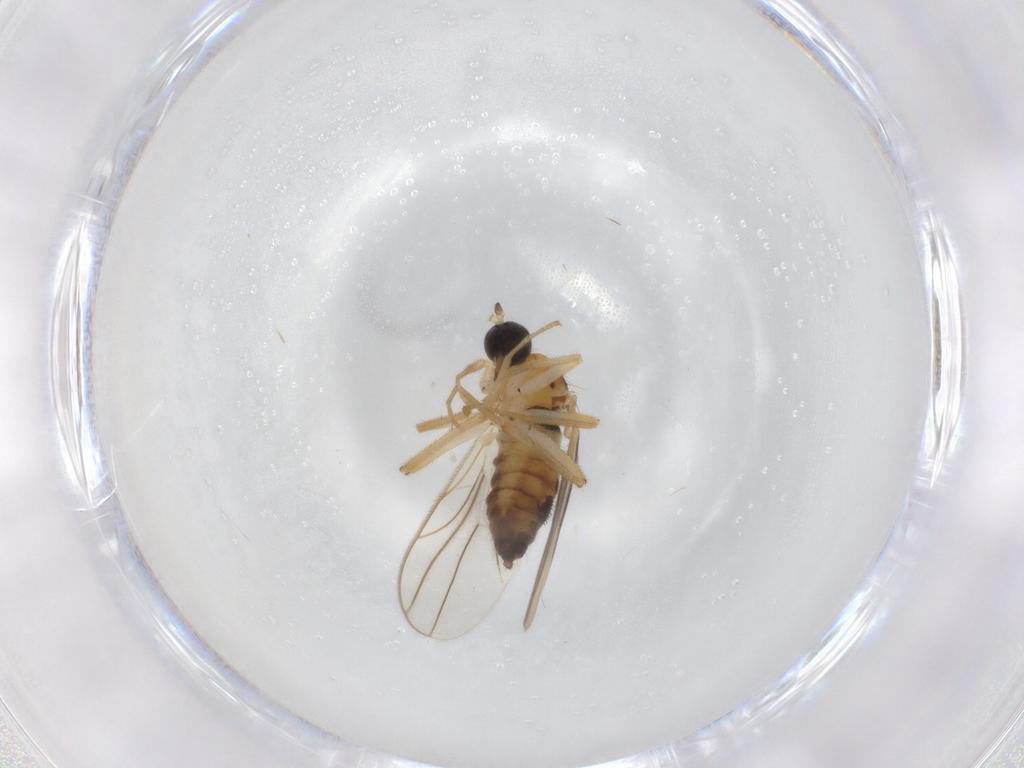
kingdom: Animalia
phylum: Arthropoda
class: Insecta
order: Diptera
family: Hybotidae
